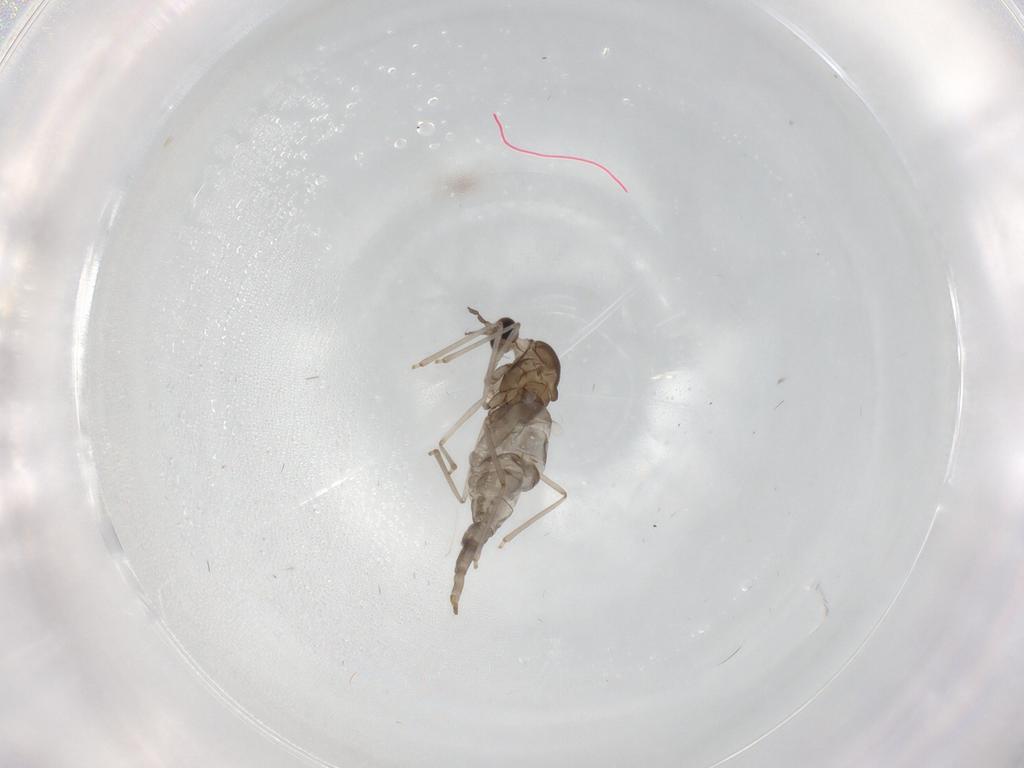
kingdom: Animalia
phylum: Arthropoda
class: Insecta
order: Diptera
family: Cecidomyiidae
